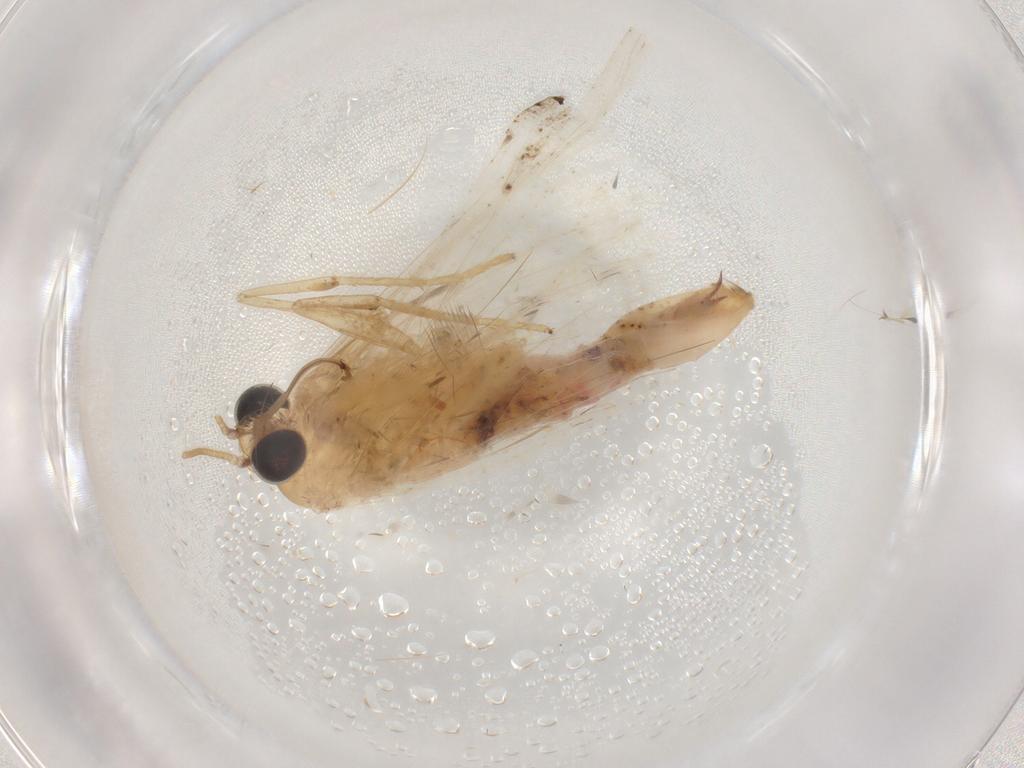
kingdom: Animalia
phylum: Arthropoda
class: Insecta
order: Lepidoptera
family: Geometridae
